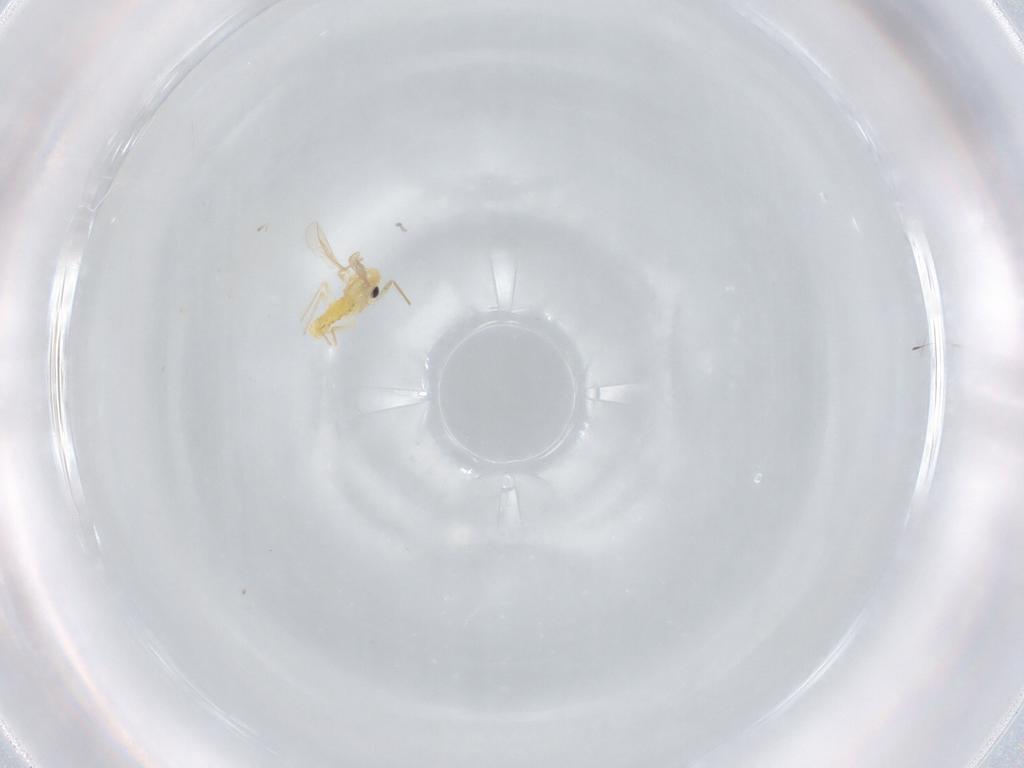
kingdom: Animalia
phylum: Arthropoda
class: Insecta
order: Diptera
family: Chironomidae
